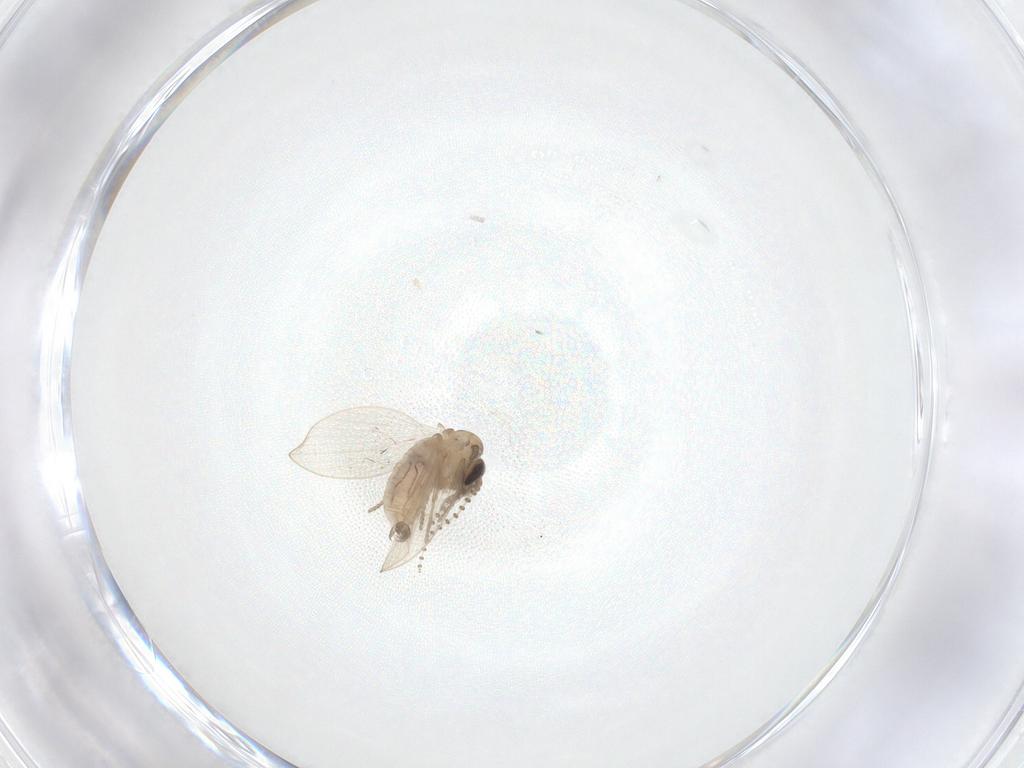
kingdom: Animalia
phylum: Arthropoda
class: Insecta
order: Diptera
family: Psychodidae
